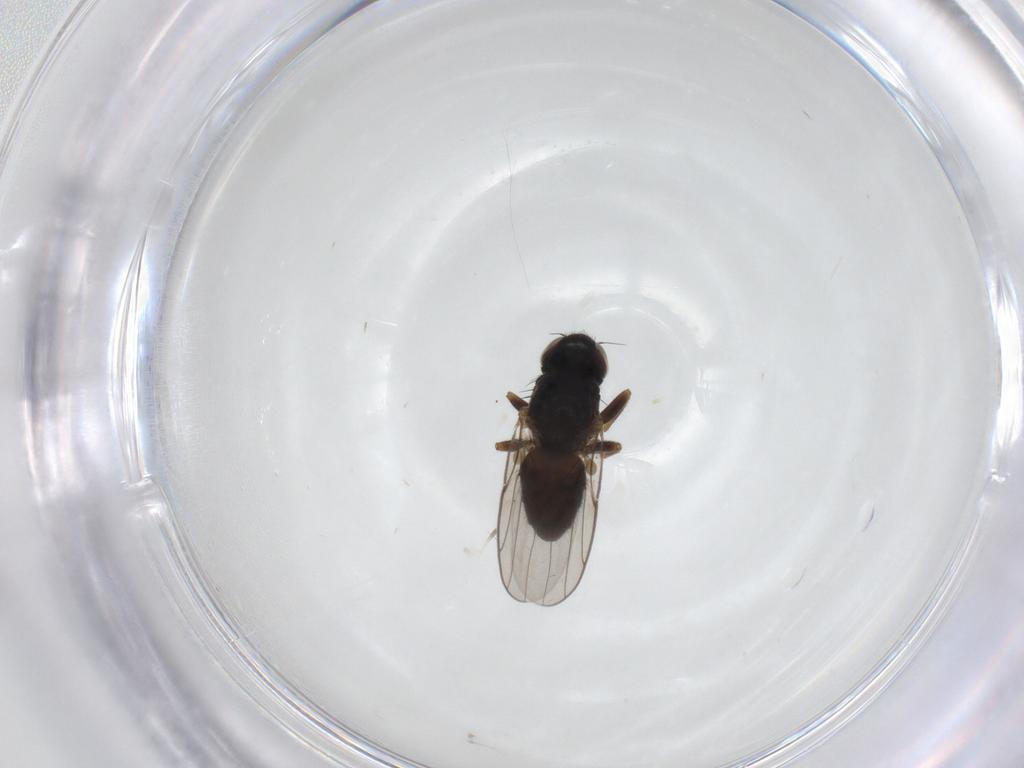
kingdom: Animalia
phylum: Arthropoda
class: Insecta
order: Diptera
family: Chloropidae
